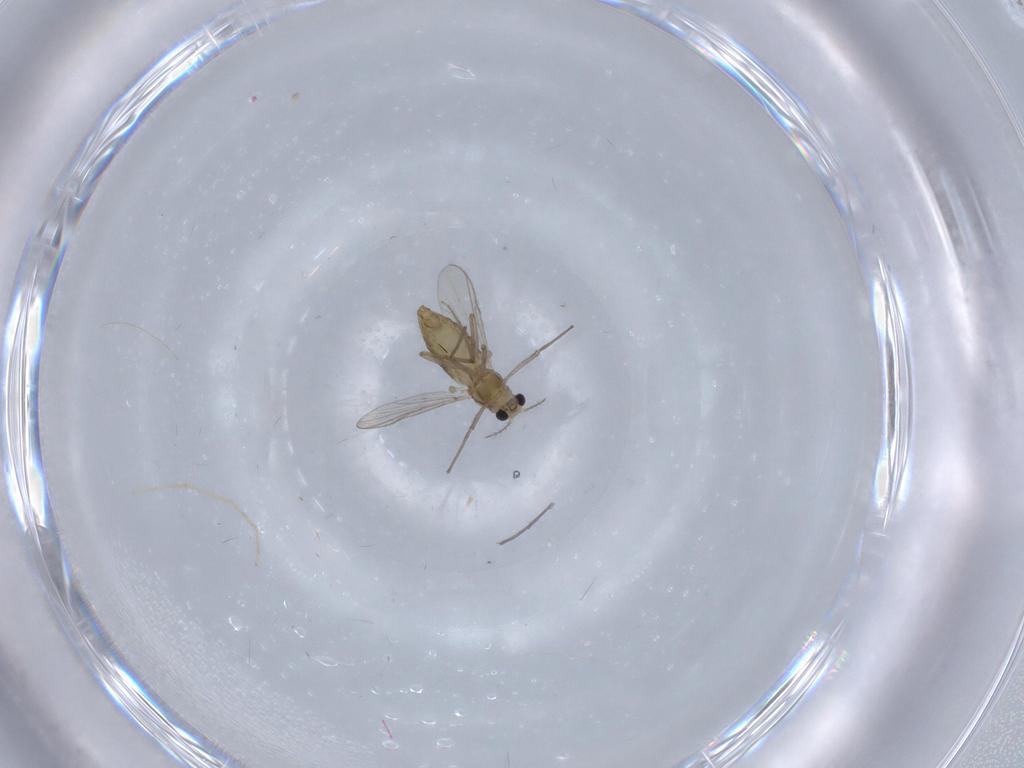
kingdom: Animalia
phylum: Arthropoda
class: Insecta
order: Diptera
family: Chironomidae
